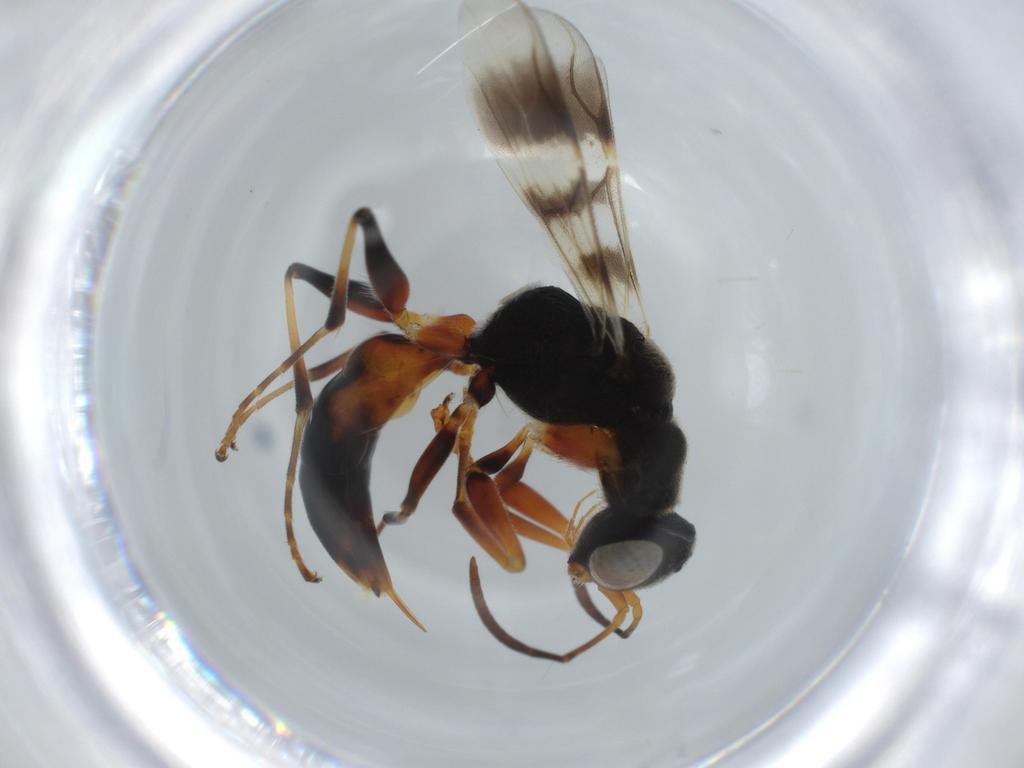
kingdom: Animalia
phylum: Arthropoda
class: Insecta
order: Hymenoptera
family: Dryinidae
